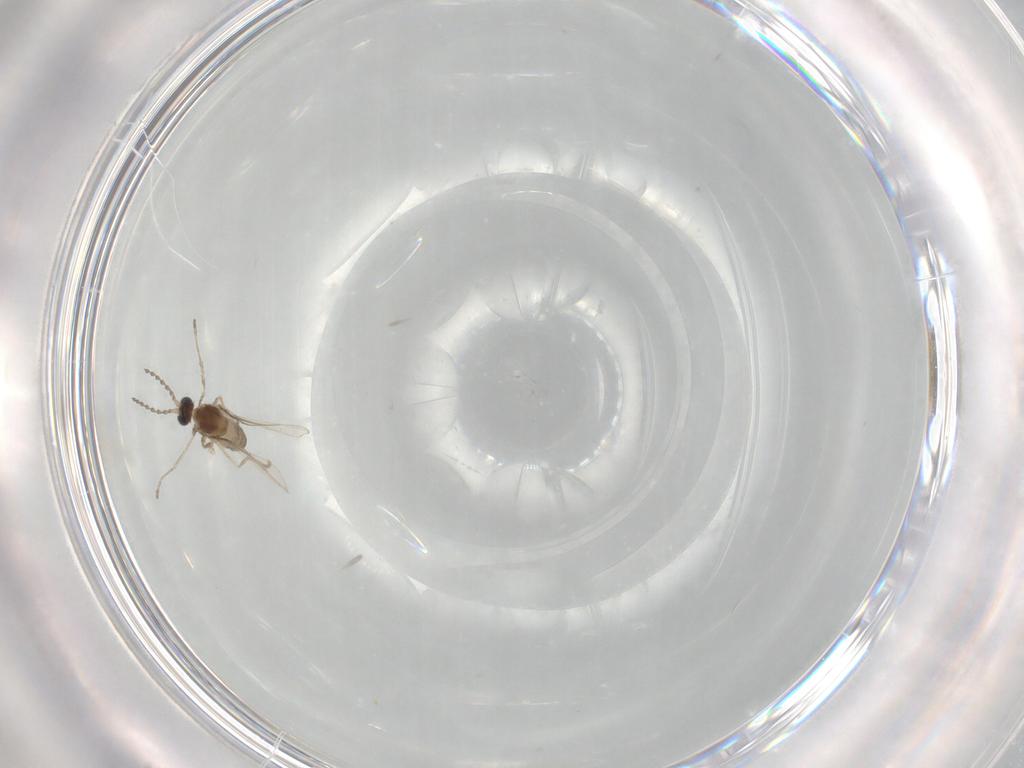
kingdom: Animalia
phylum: Arthropoda
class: Insecta
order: Diptera
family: Cecidomyiidae
